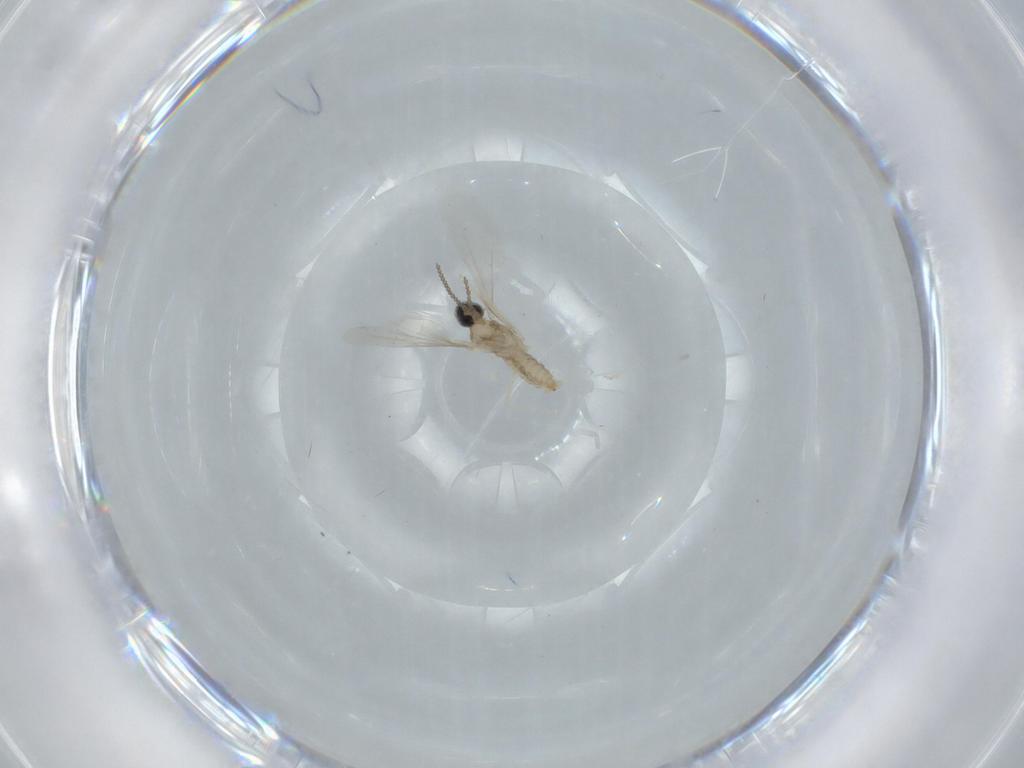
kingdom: Animalia
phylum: Arthropoda
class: Insecta
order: Diptera
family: Cecidomyiidae
